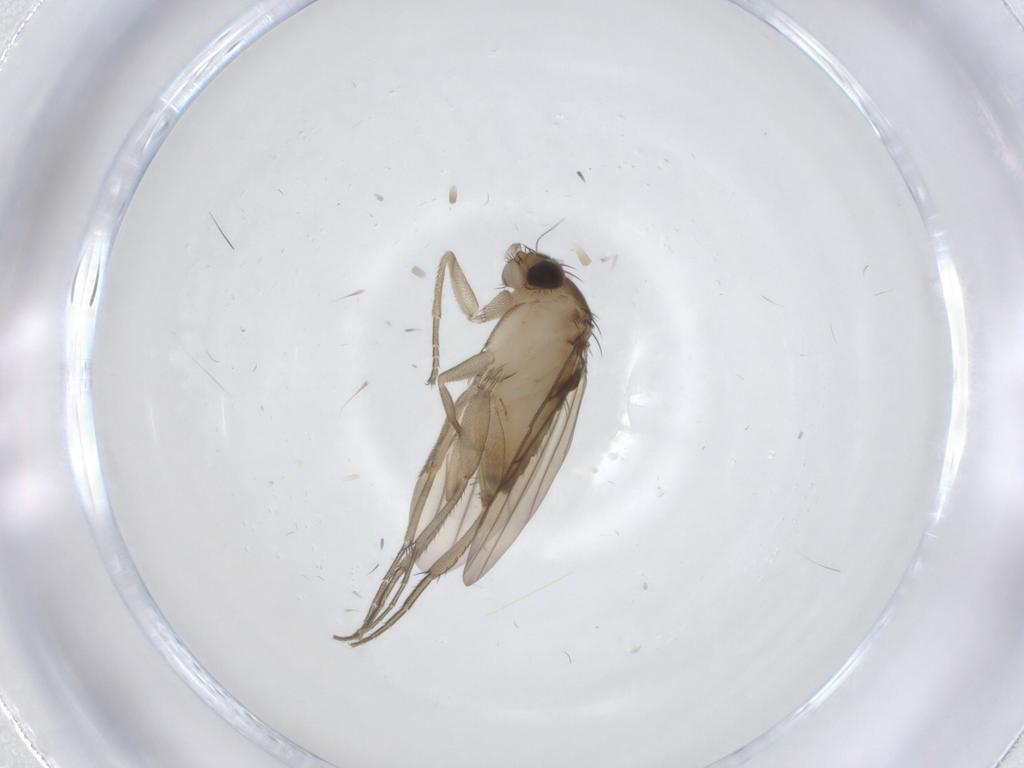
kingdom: Animalia
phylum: Arthropoda
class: Insecta
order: Diptera
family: Phoridae
